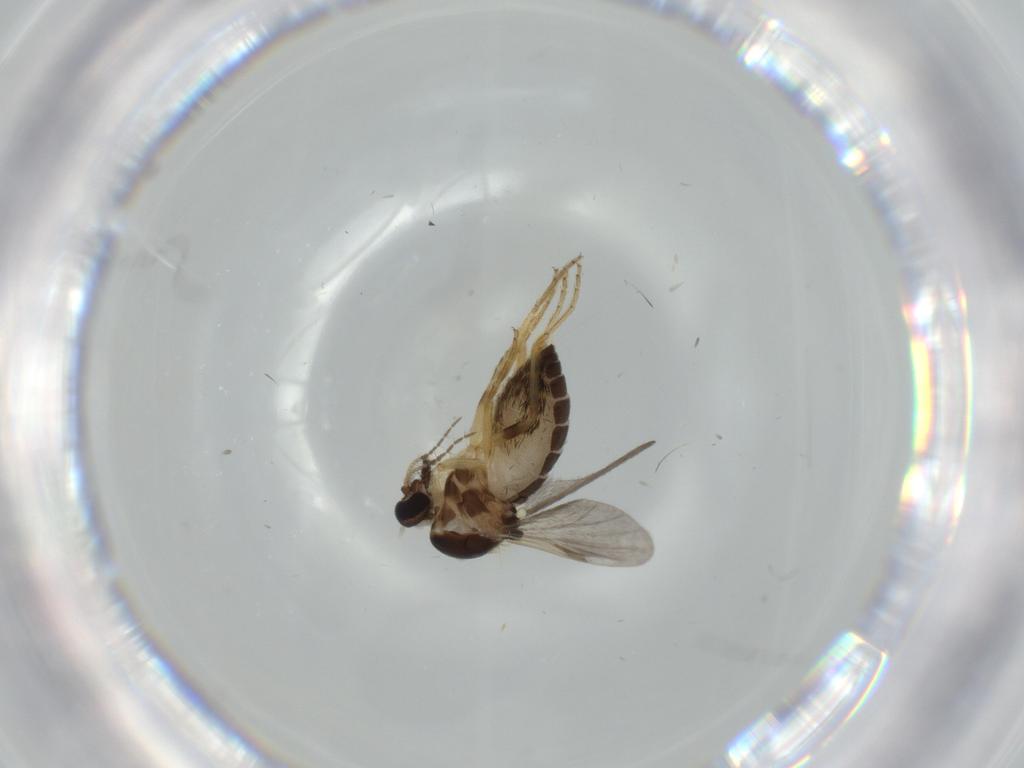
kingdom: Animalia
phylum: Arthropoda
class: Insecta
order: Diptera
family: Ceratopogonidae
